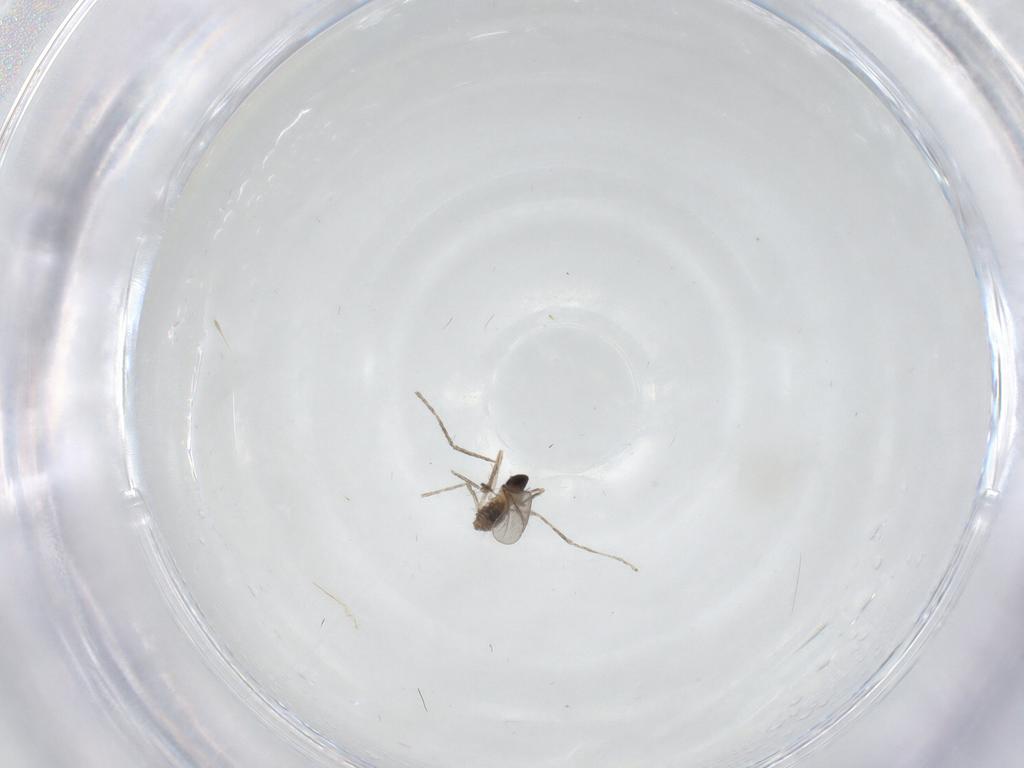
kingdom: Animalia
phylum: Arthropoda
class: Insecta
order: Diptera
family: Cecidomyiidae
